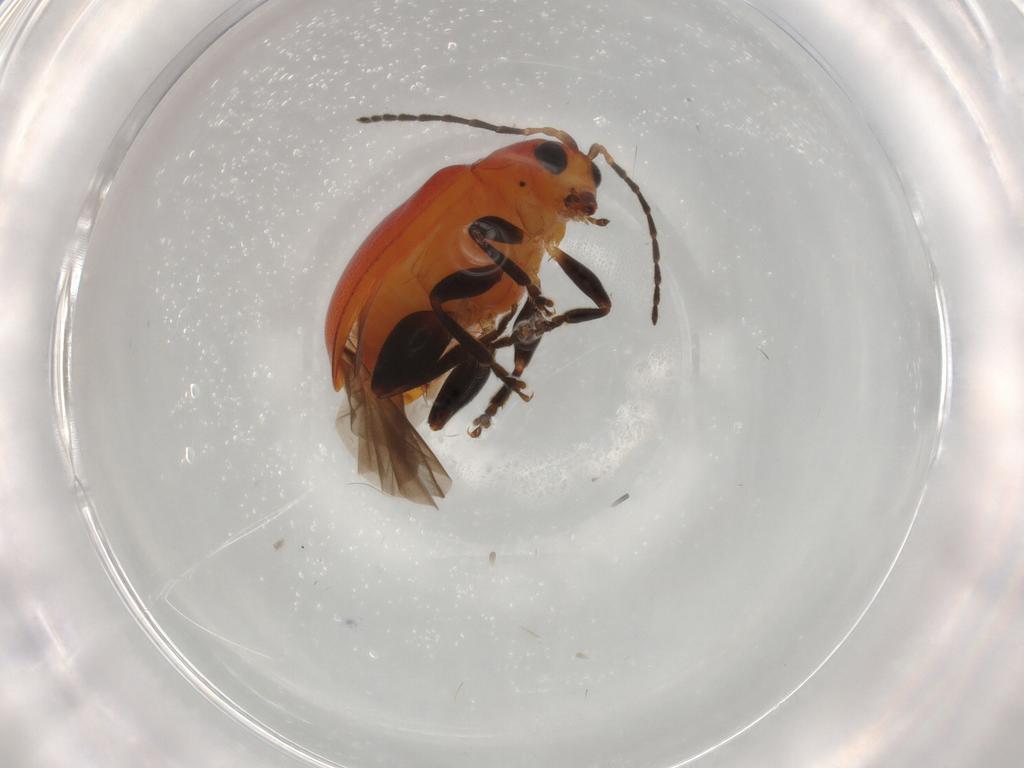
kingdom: Animalia
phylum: Arthropoda
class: Insecta
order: Coleoptera
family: Chrysomelidae
